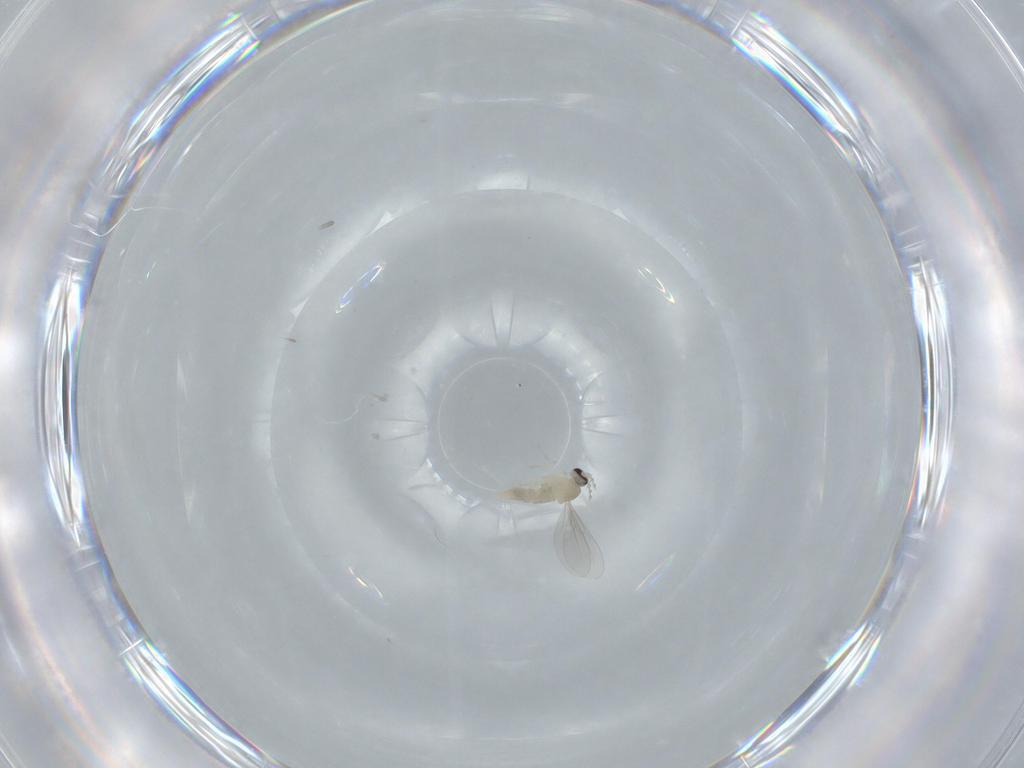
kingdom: Animalia
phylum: Arthropoda
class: Insecta
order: Diptera
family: Cecidomyiidae
